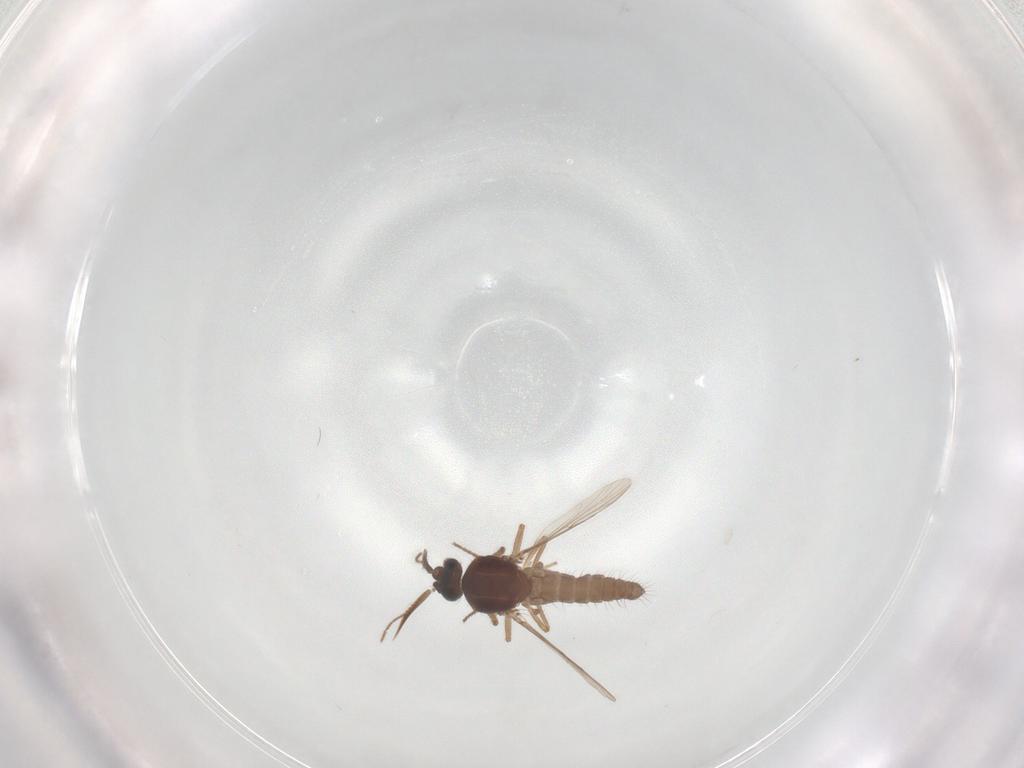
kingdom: Animalia
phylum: Arthropoda
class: Insecta
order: Diptera
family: Ceratopogonidae
